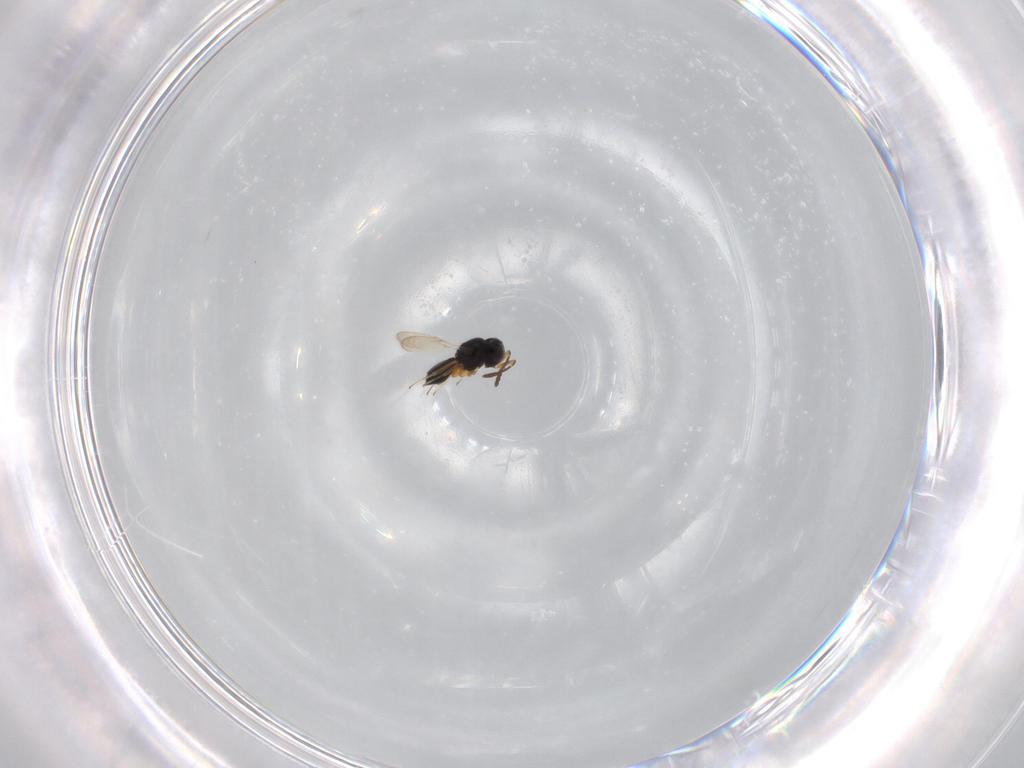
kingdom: Animalia
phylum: Arthropoda
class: Insecta
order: Hymenoptera
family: Scelionidae
